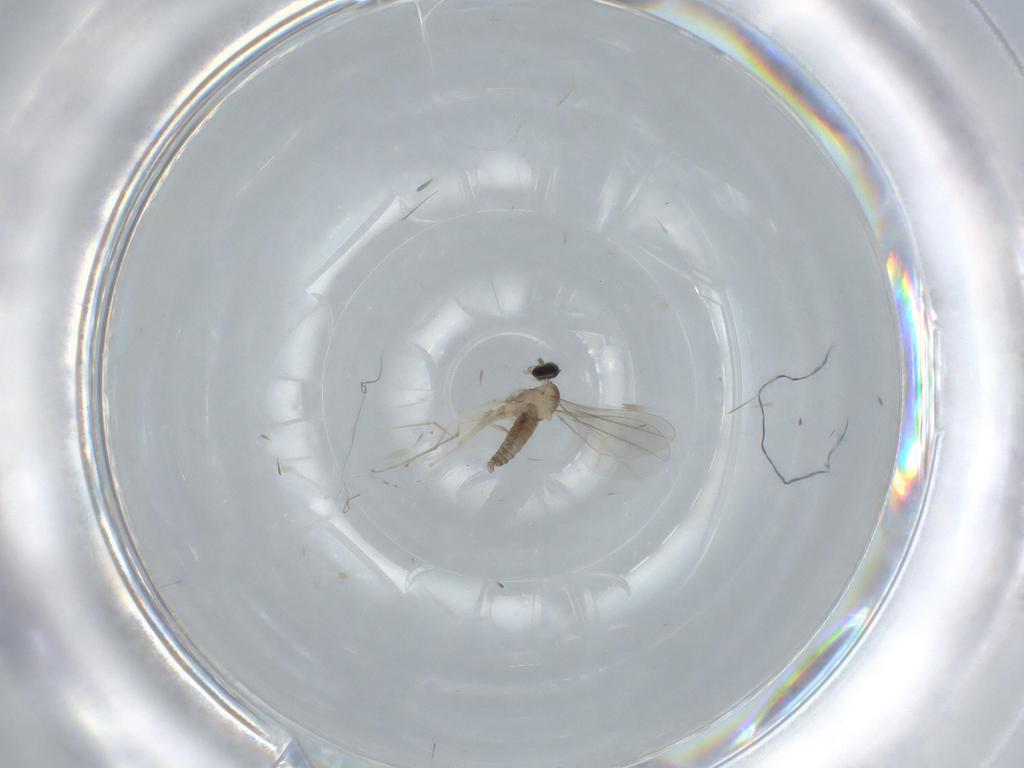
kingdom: Animalia
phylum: Arthropoda
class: Insecta
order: Diptera
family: Cecidomyiidae
